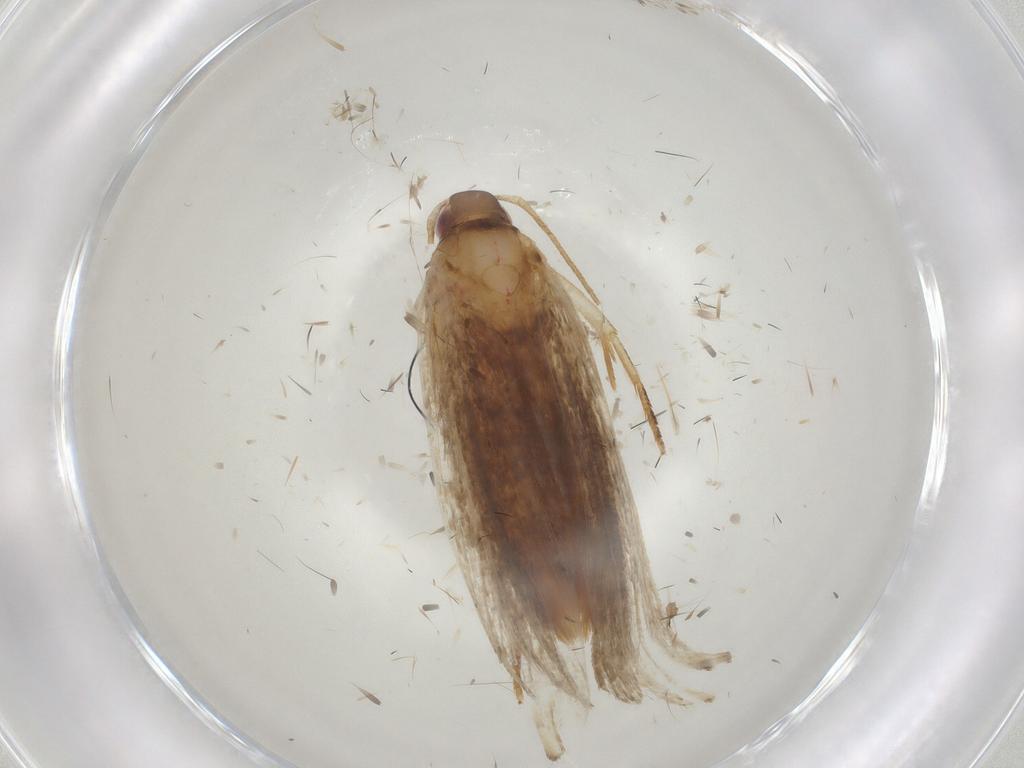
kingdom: Animalia
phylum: Arthropoda
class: Insecta
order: Lepidoptera
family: Gelechiidae
